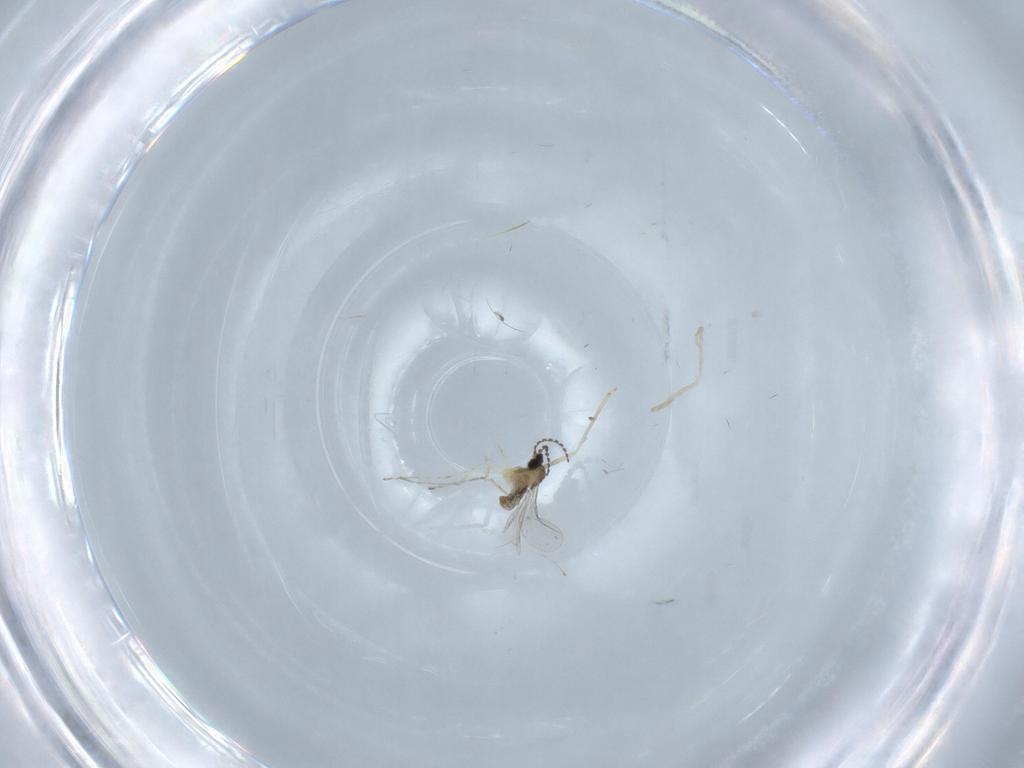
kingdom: Animalia
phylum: Arthropoda
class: Insecta
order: Diptera
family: Cecidomyiidae
